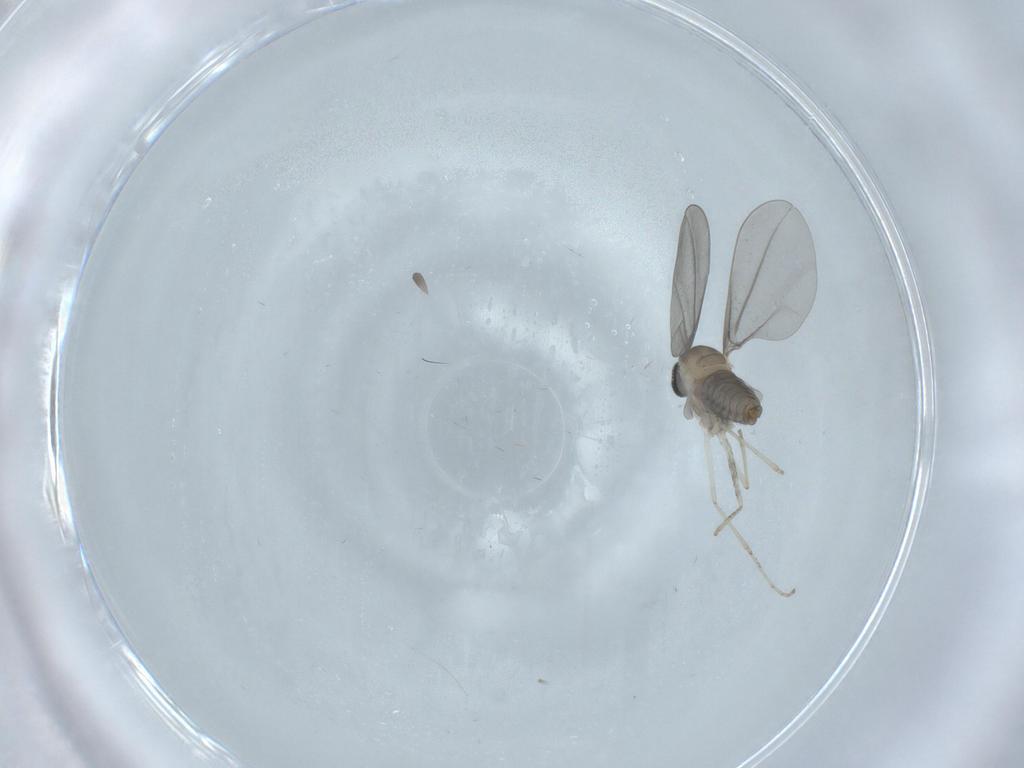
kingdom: Animalia
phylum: Arthropoda
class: Insecta
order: Diptera
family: Cecidomyiidae
